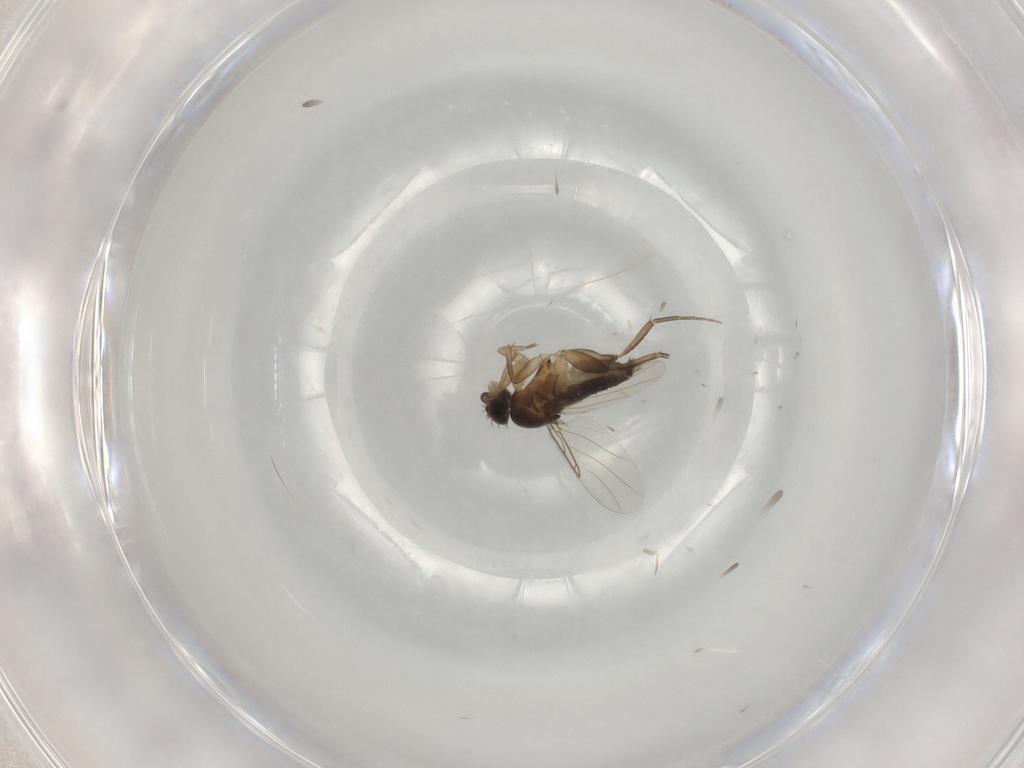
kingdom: Animalia
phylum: Arthropoda
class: Insecta
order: Diptera
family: Phoridae
